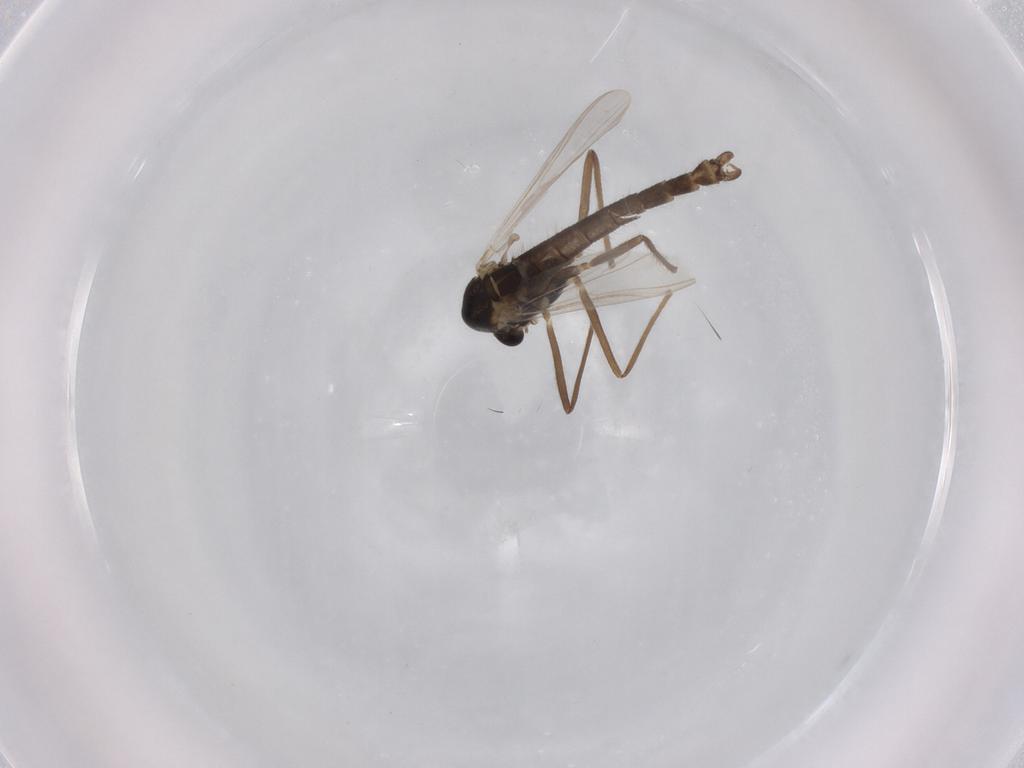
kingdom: Animalia
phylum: Arthropoda
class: Insecta
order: Diptera
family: Chironomidae
